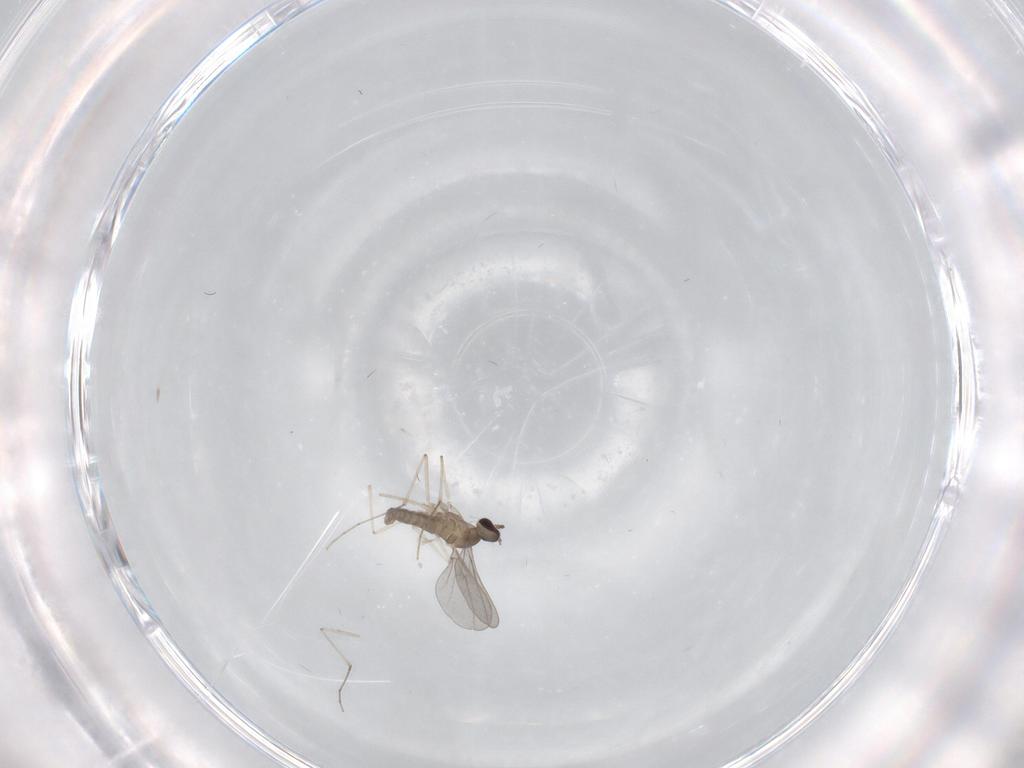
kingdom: Animalia
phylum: Arthropoda
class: Insecta
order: Diptera
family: Cecidomyiidae
